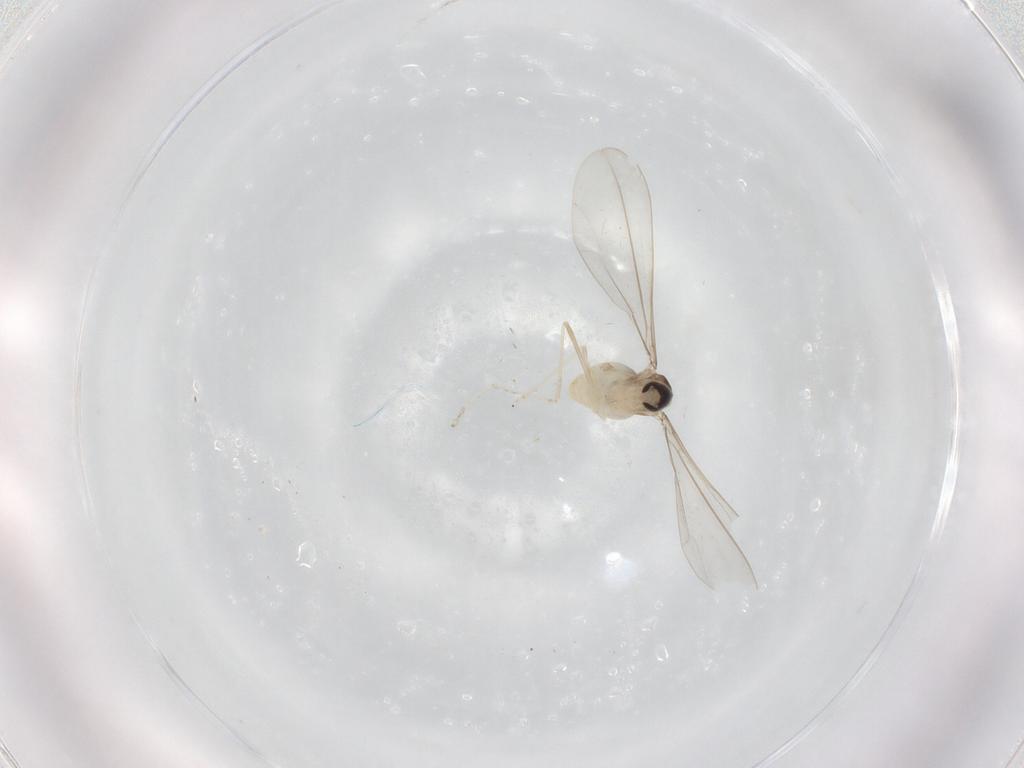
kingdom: Animalia
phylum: Arthropoda
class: Insecta
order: Diptera
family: Cecidomyiidae
